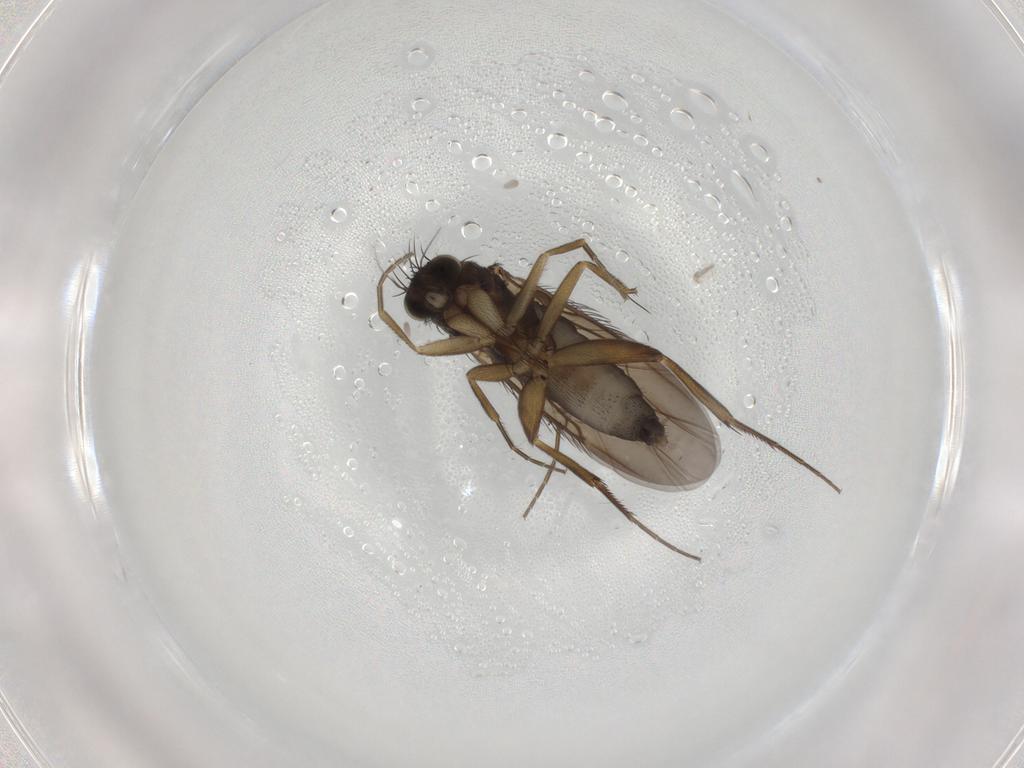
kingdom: Animalia
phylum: Arthropoda
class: Insecta
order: Diptera
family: Phoridae
